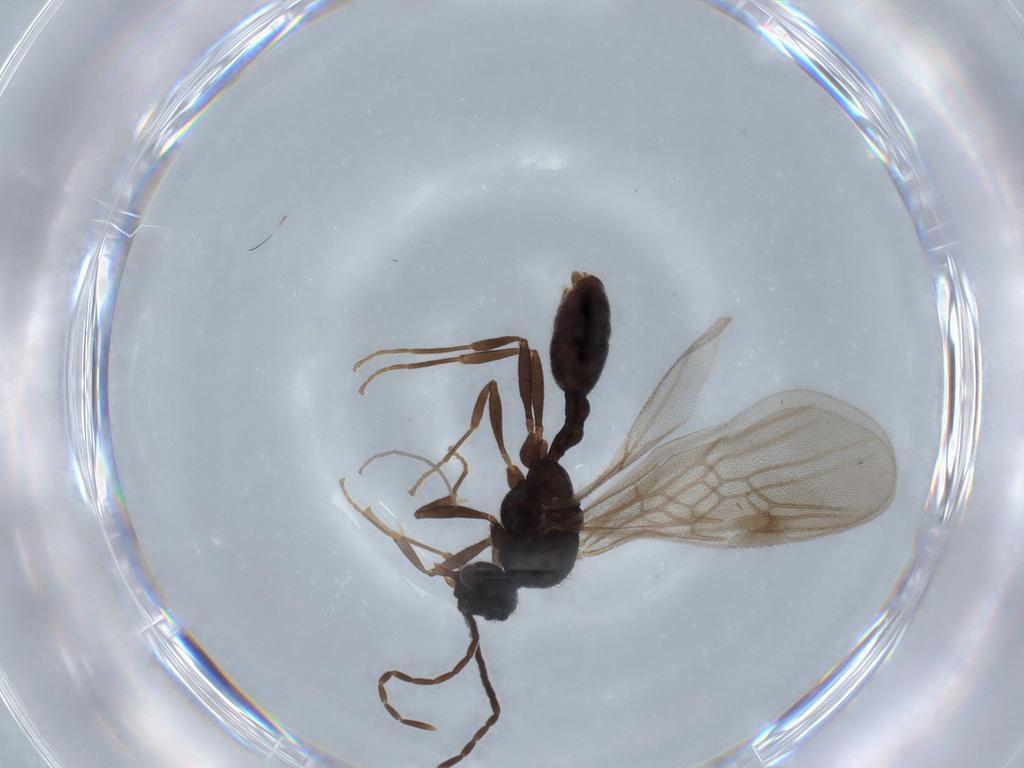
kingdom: Animalia
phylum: Arthropoda
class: Insecta
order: Hymenoptera
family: Formicidae
